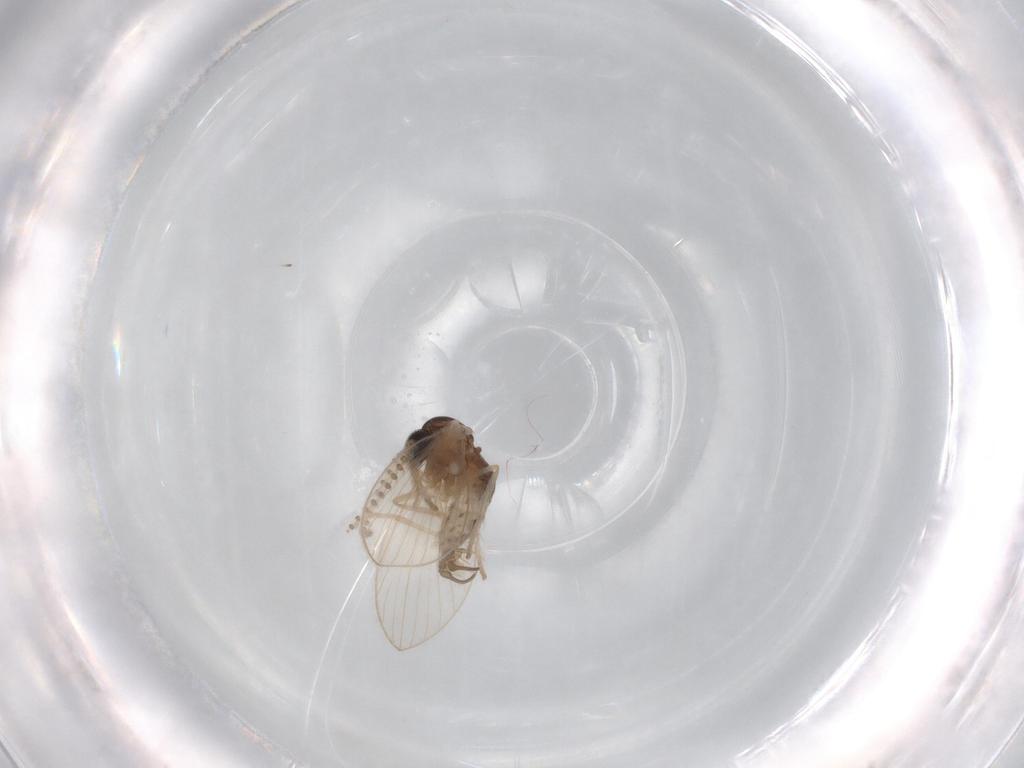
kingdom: Animalia
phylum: Arthropoda
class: Insecta
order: Diptera
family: Psychodidae
